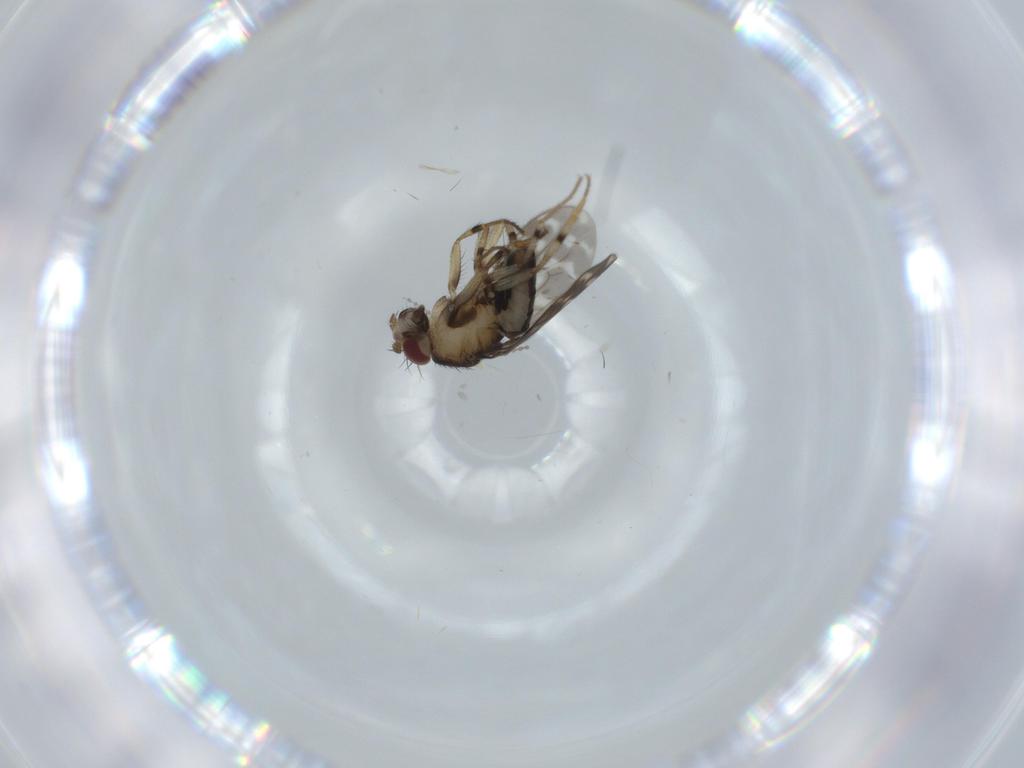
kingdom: Animalia
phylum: Arthropoda
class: Insecta
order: Diptera
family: Sphaeroceridae
